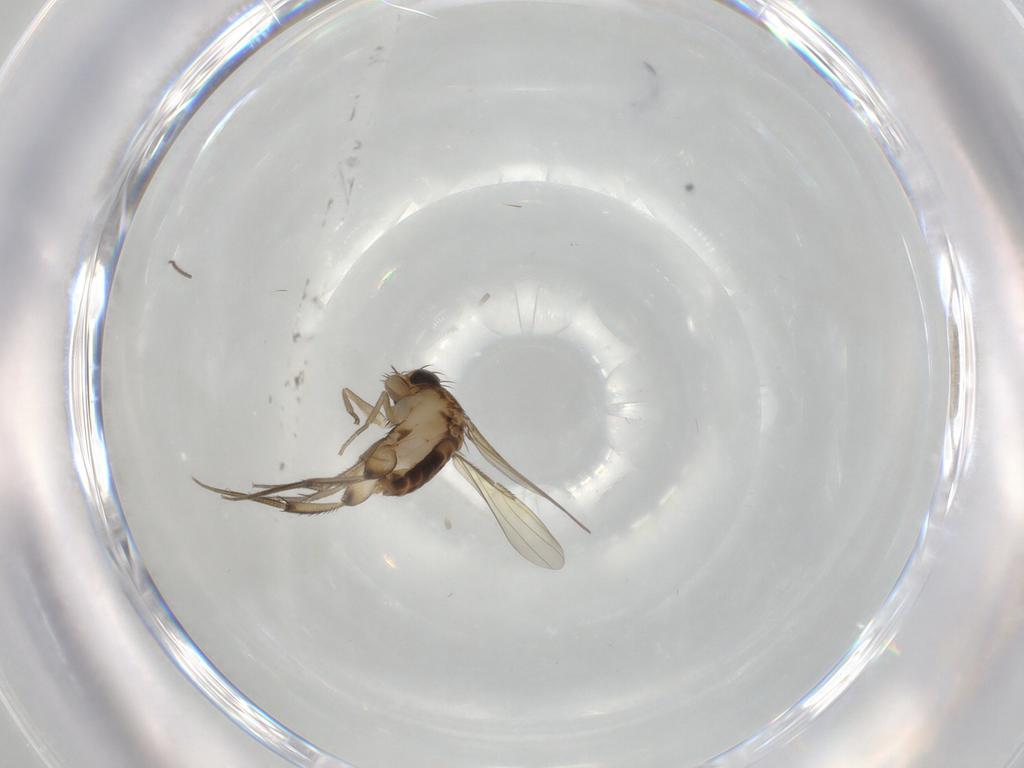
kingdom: Animalia
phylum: Arthropoda
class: Insecta
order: Diptera
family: Phoridae
